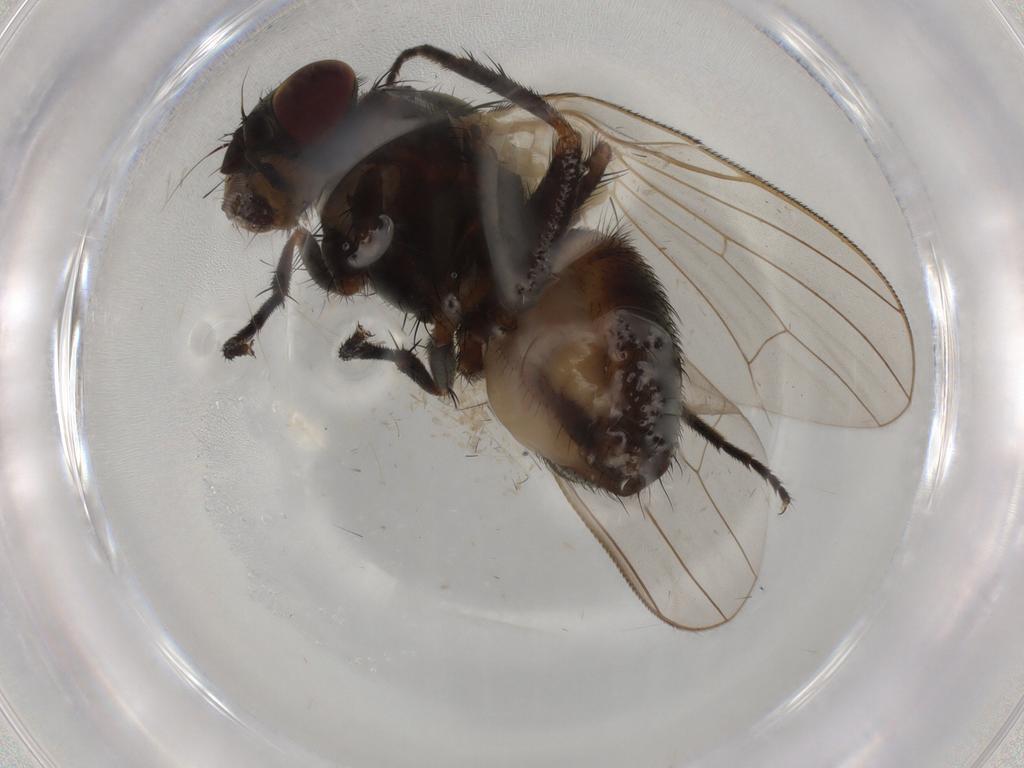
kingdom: Animalia
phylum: Arthropoda
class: Insecta
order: Diptera
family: Fannia
